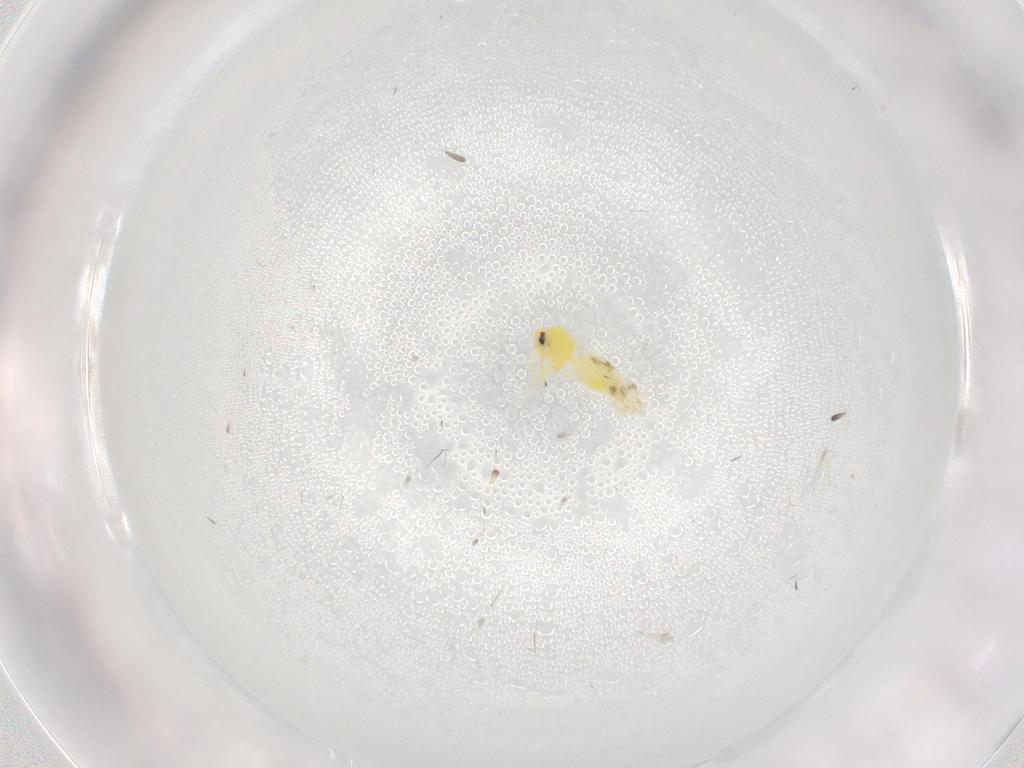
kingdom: Animalia
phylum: Arthropoda
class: Insecta
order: Hemiptera
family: Aleyrodidae
